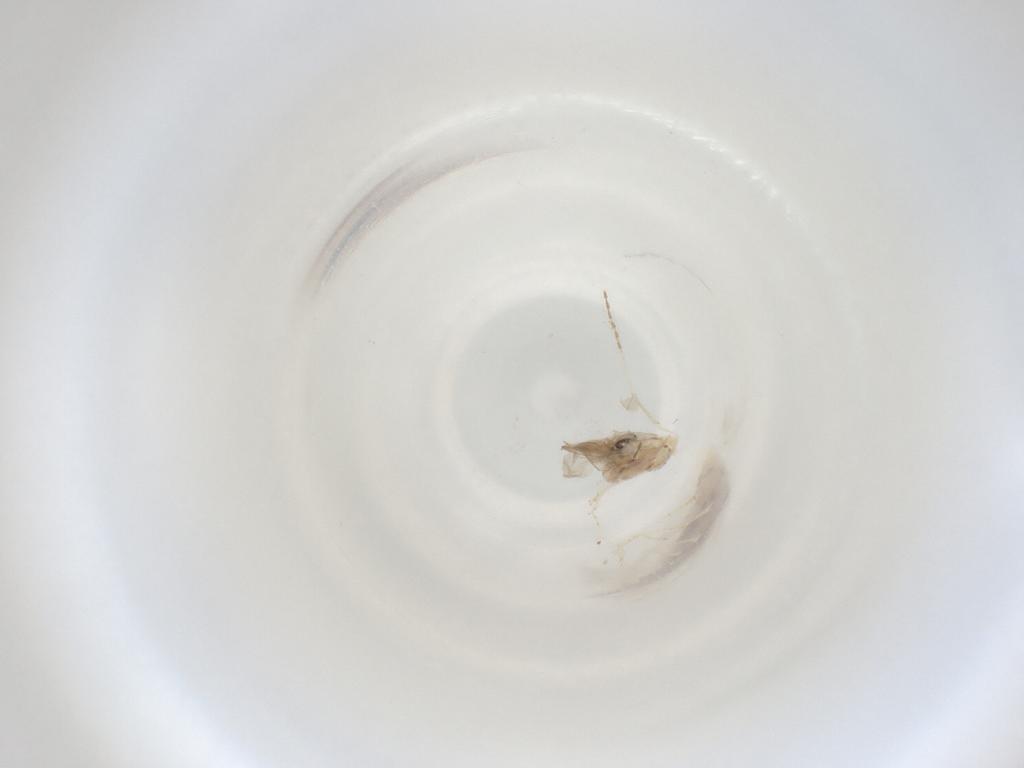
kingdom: Animalia
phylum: Arthropoda
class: Insecta
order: Diptera
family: Cecidomyiidae
